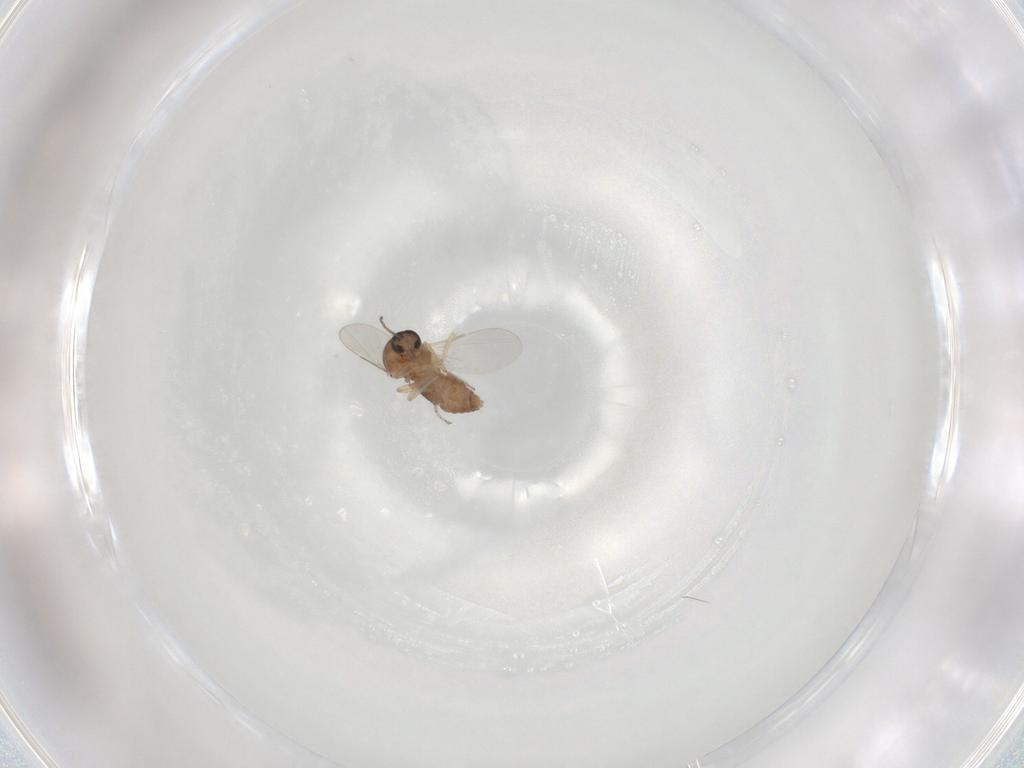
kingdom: Animalia
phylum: Arthropoda
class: Insecta
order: Diptera
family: Ceratopogonidae
